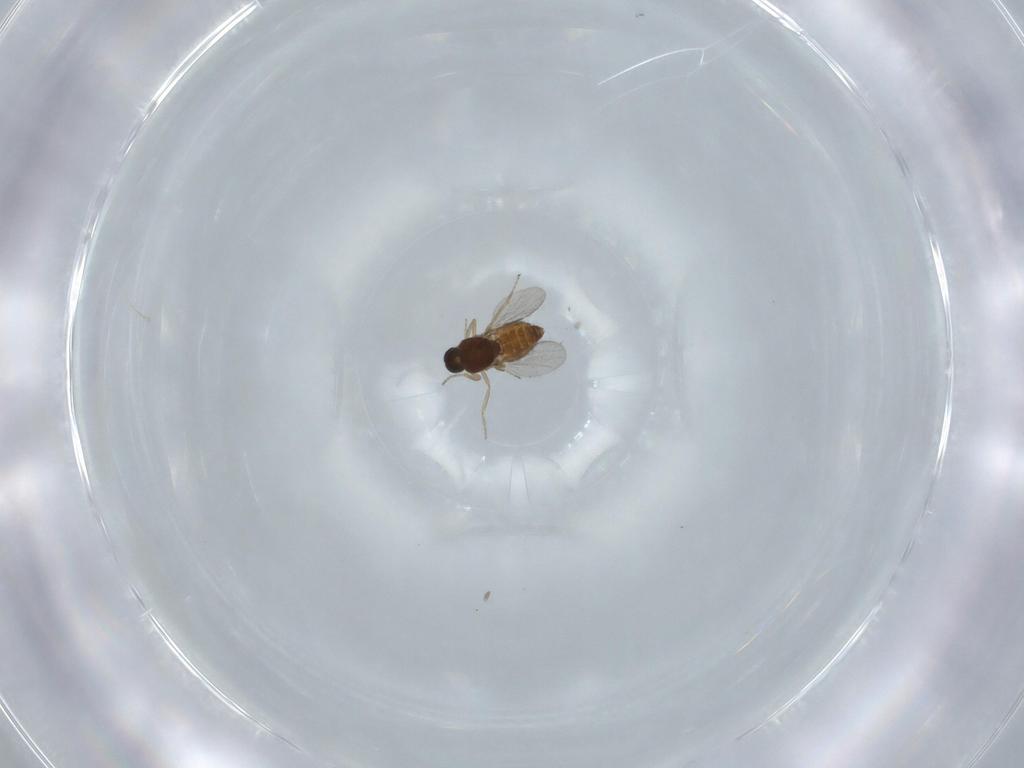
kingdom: Animalia
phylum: Arthropoda
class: Insecta
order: Diptera
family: Ceratopogonidae
